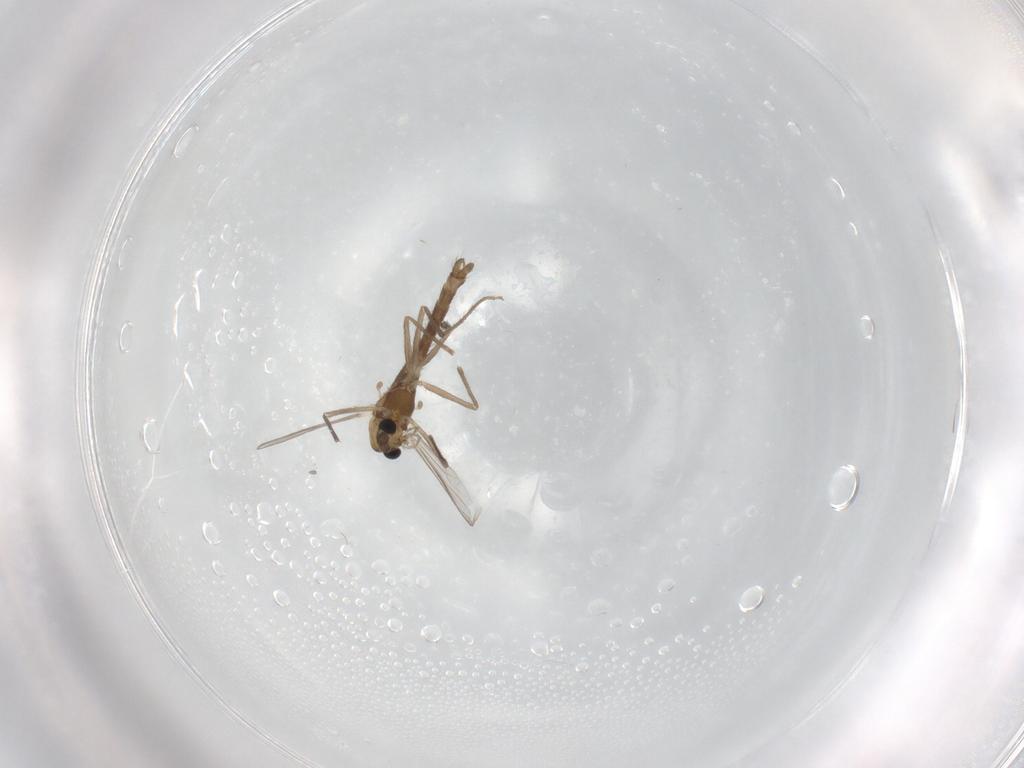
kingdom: Animalia
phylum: Arthropoda
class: Insecta
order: Diptera
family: Chironomidae
